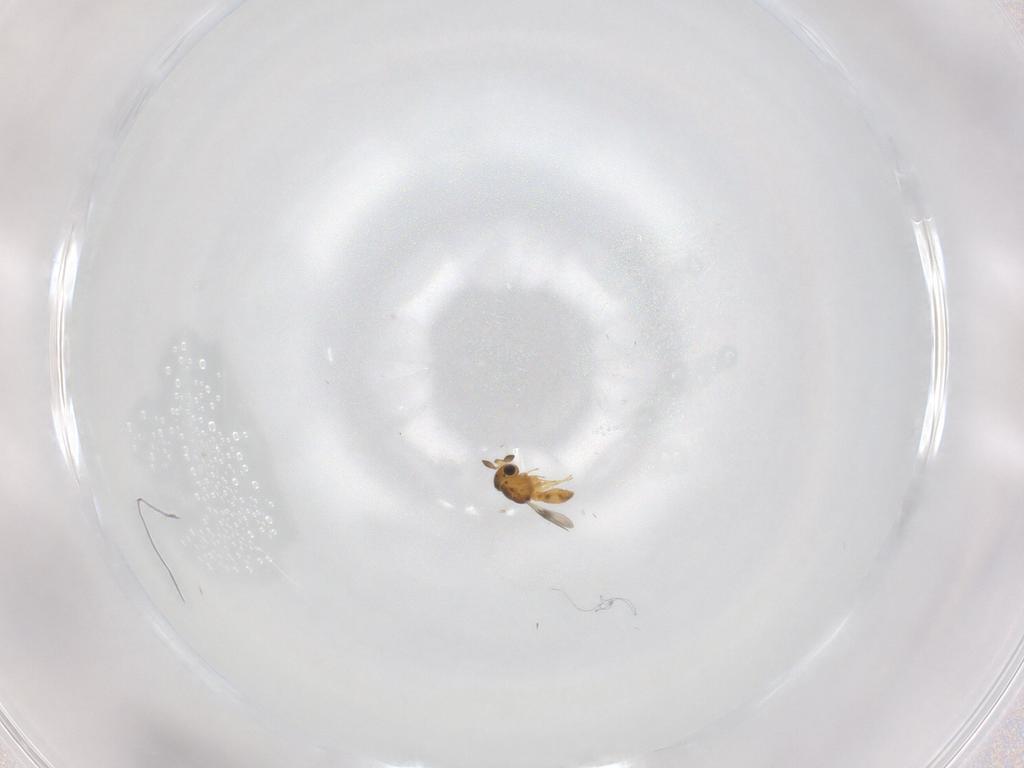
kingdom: Animalia
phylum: Arthropoda
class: Insecta
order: Hymenoptera
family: Scelionidae
